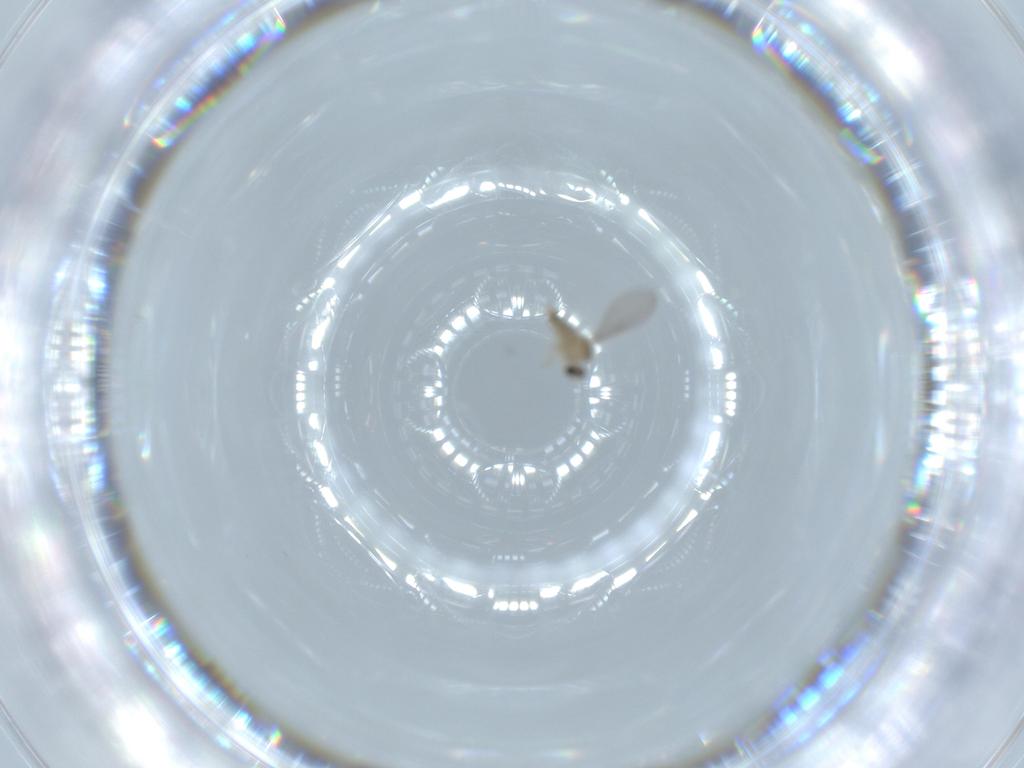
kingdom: Animalia
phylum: Arthropoda
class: Insecta
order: Diptera
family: Cecidomyiidae
